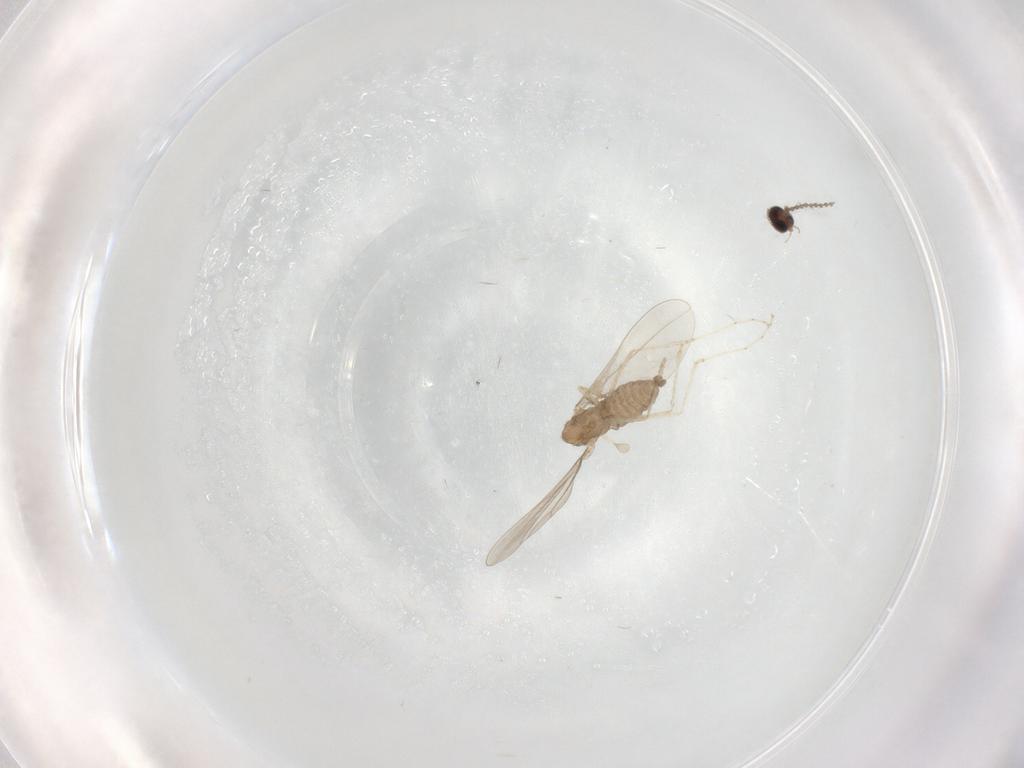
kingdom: Animalia
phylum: Arthropoda
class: Insecta
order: Diptera
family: Cecidomyiidae
